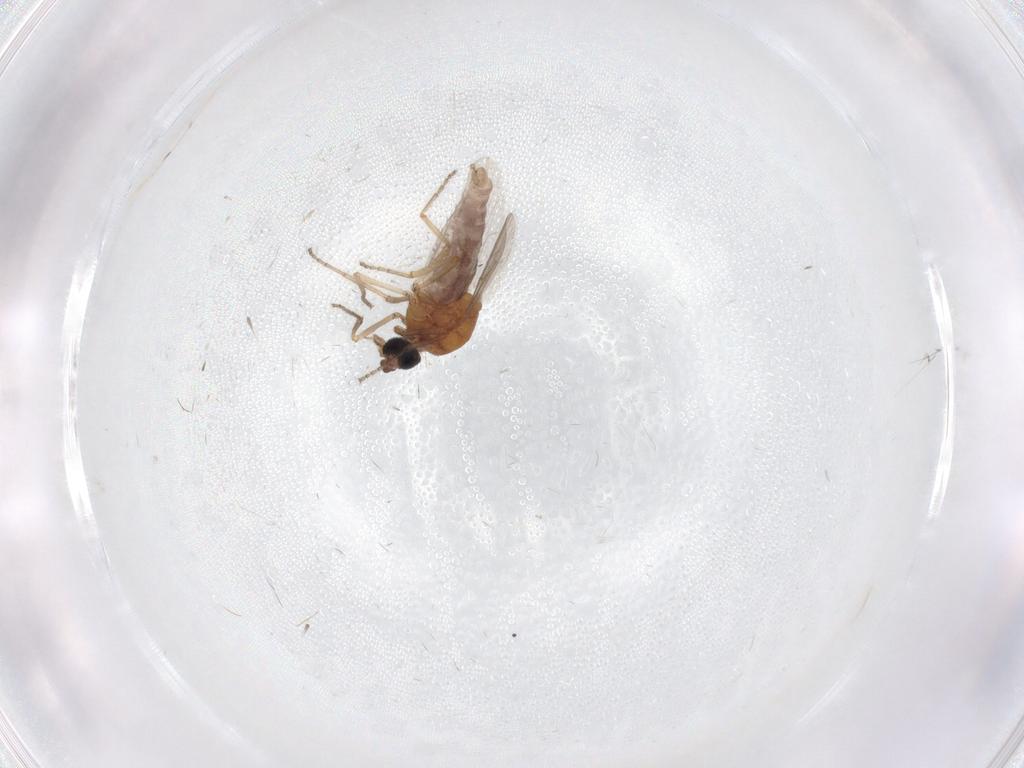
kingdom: Animalia
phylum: Arthropoda
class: Insecta
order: Diptera
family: Ceratopogonidae
